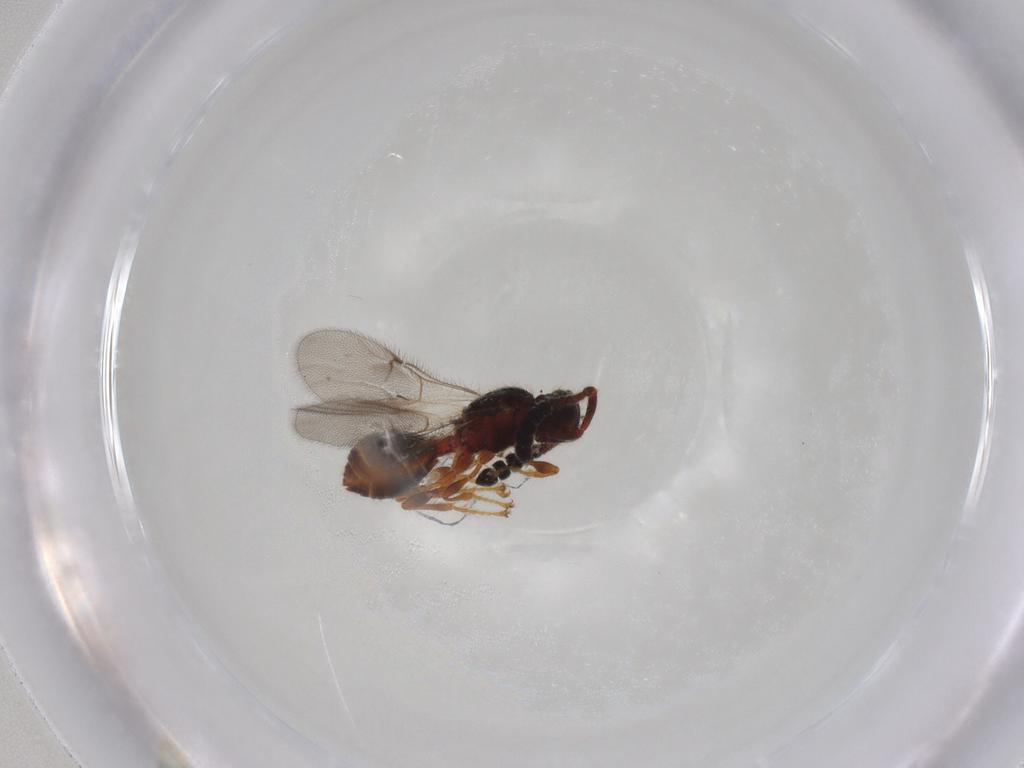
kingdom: Animalia
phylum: Arthropoda
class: Insecta
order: Hymenoptera
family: Diapriidae
